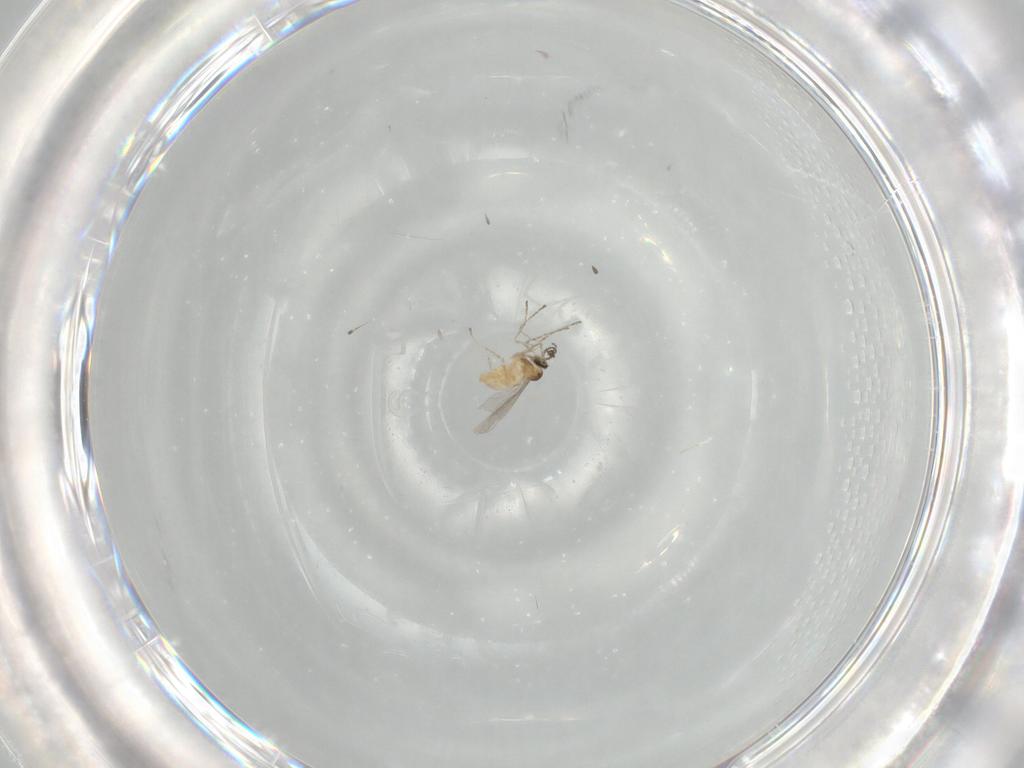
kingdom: Animalia
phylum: Arthropoda
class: Insecta
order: Diptera
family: Cecidomyiidae
